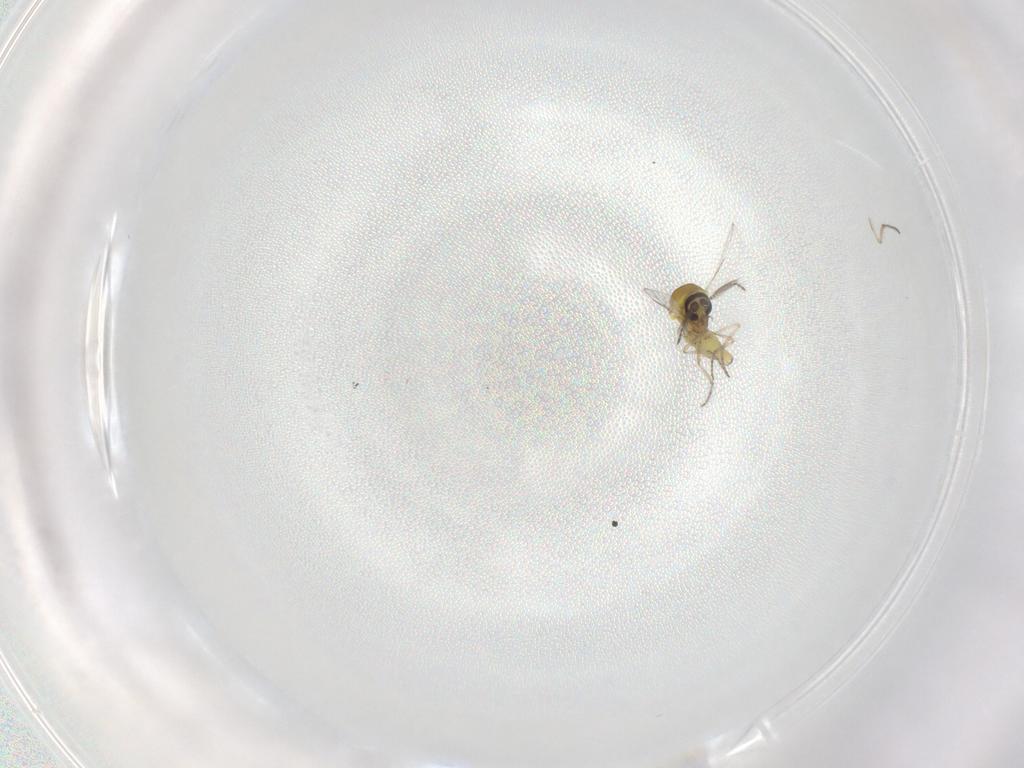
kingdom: Animalia
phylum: Arthropoda
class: Insecta
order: Diptera
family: Ceratopogonidae
